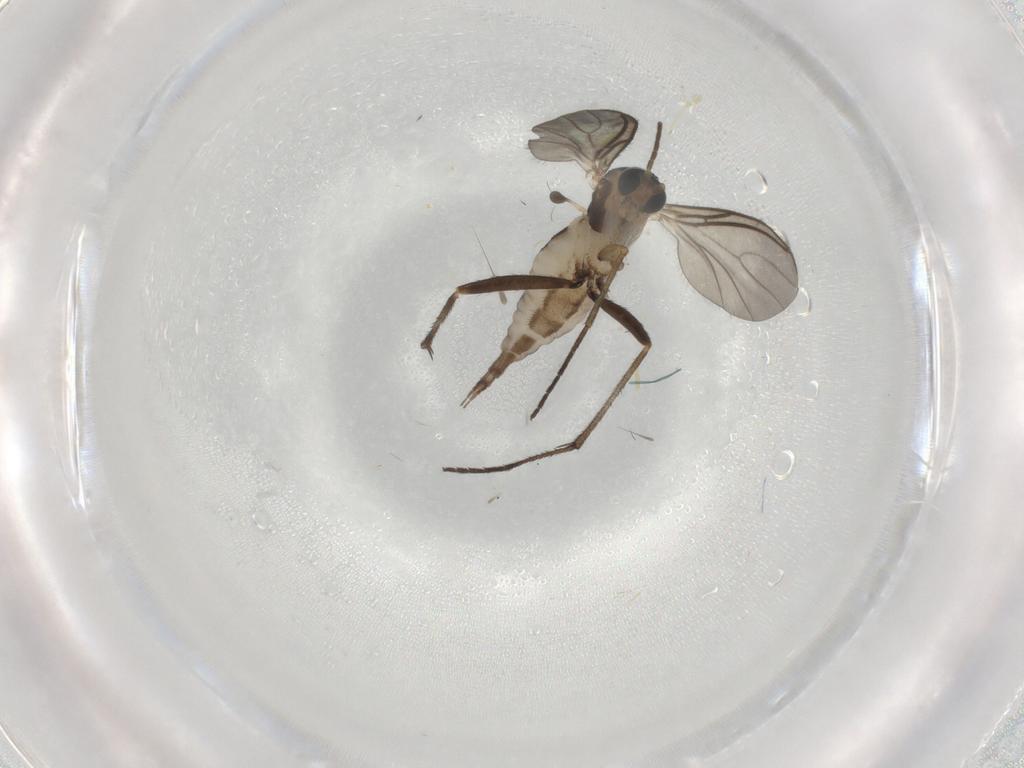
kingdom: Animalia
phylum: Arthropoda
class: Insecta
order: Diptera
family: Sciaridae
